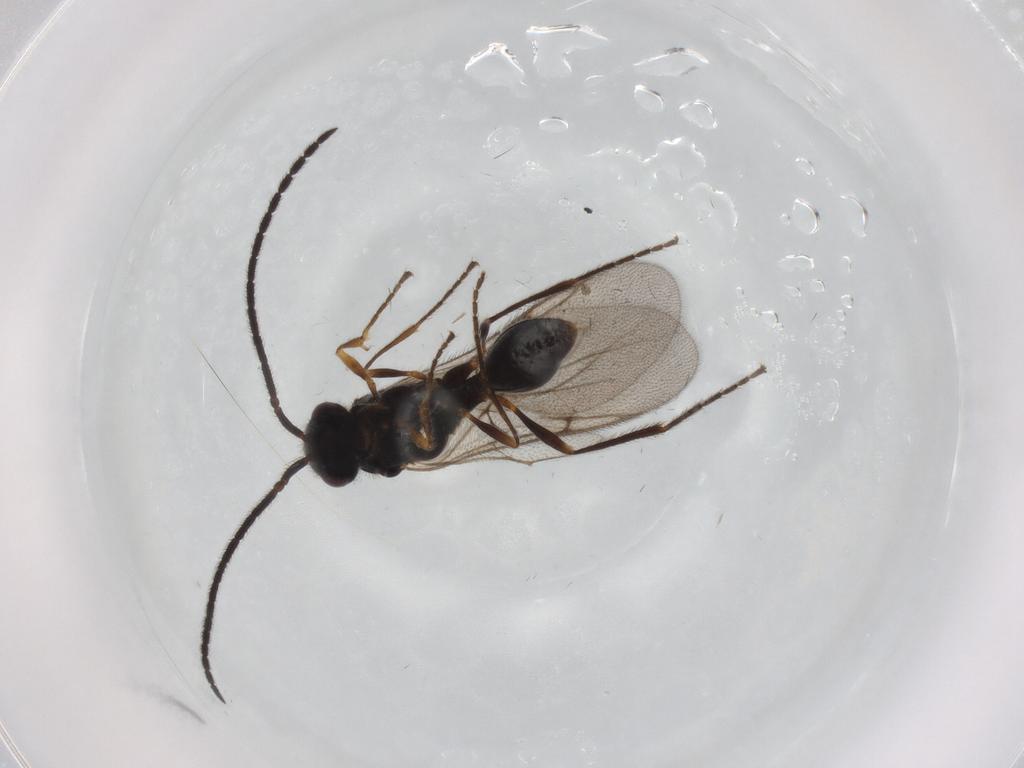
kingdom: Animalia
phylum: Arthropoda
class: Insecta
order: Hymenoptera
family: Diapriidae
